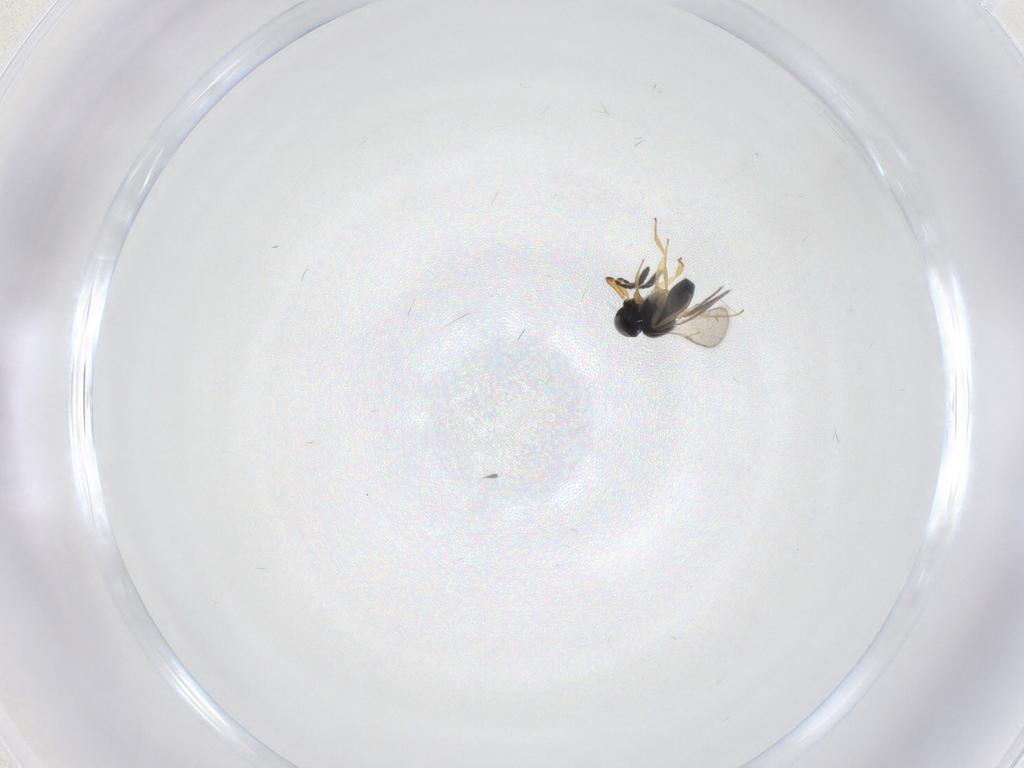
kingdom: Animalia
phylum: Arthropoda
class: Insecta
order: Hymenoptera
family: Scelionidae
